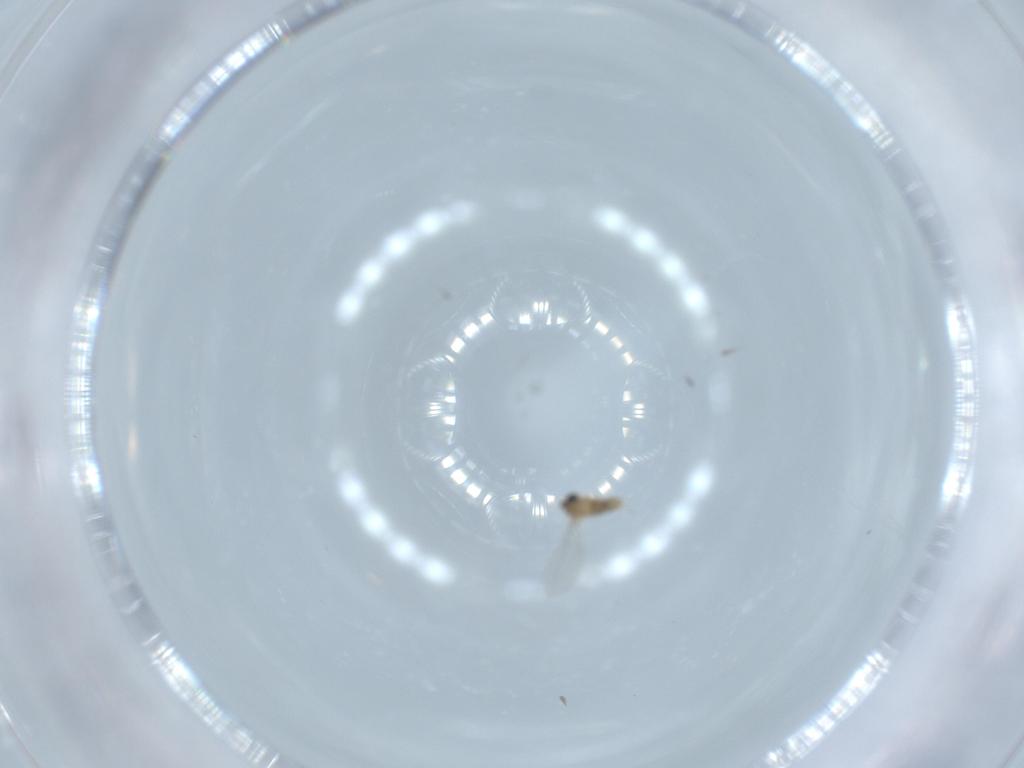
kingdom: Animalia
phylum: Arthropoda
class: Insecta
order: Diptera
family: Cecidomyiidae
